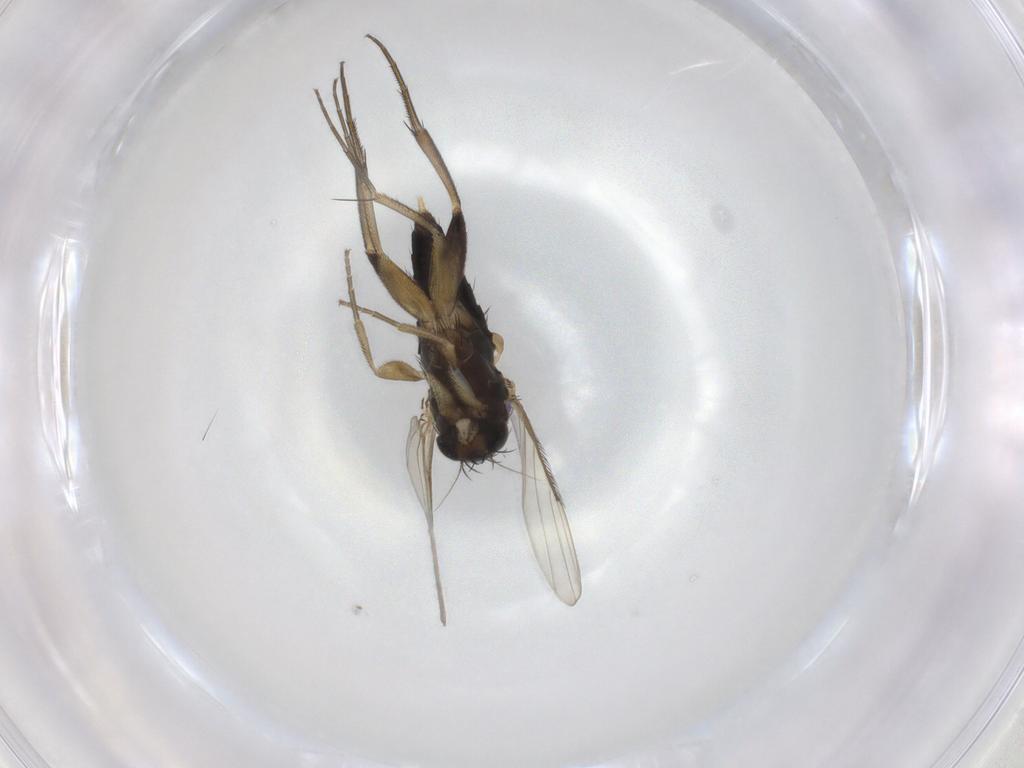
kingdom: Animalia
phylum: Arthropoda
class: Insecta
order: Diptera
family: Phoridae
